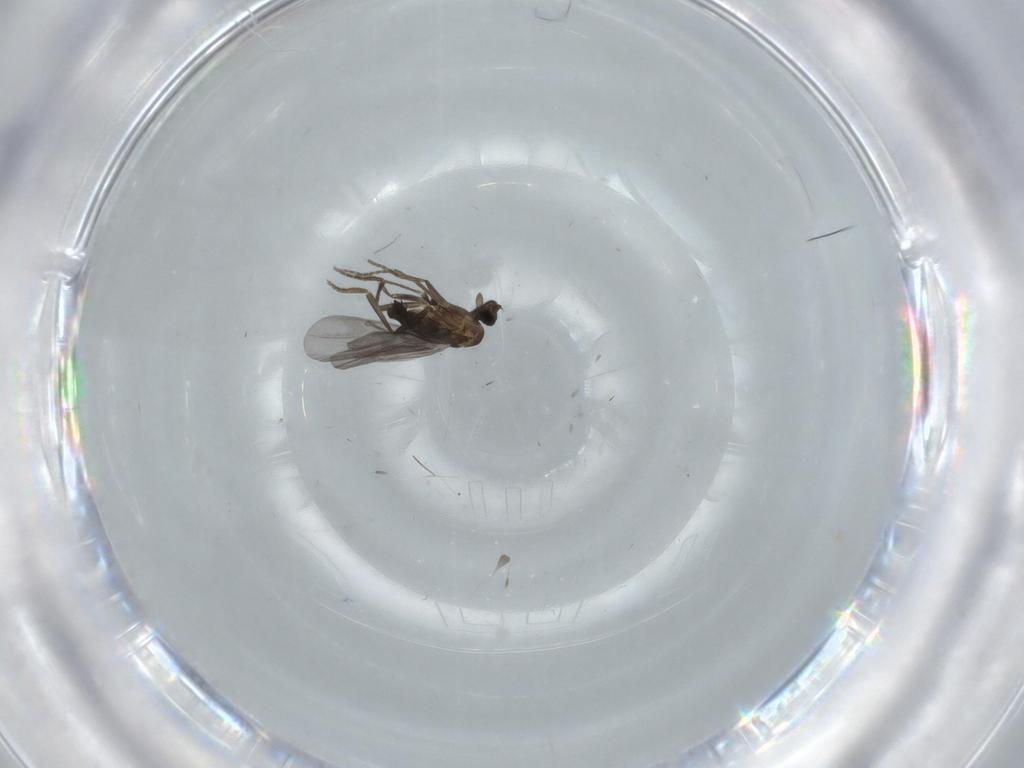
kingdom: Animalia
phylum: Arthropoda
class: Insecta
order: Diptera
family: Phoridae
